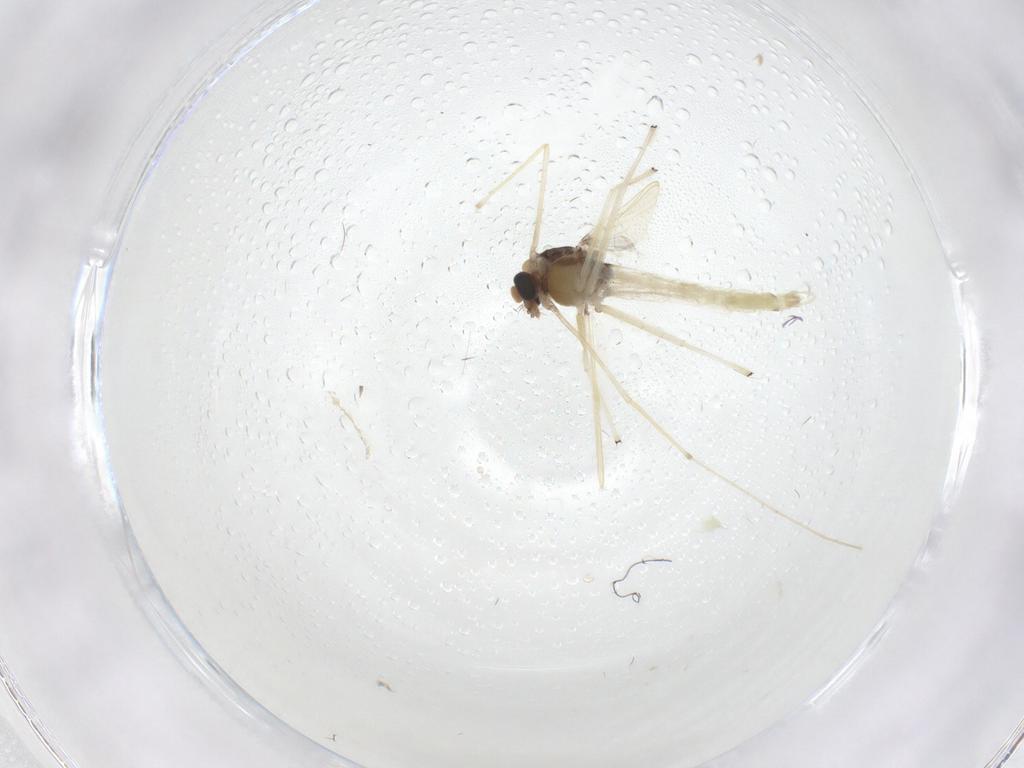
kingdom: Animalia
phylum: Arthropoda
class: Insecta
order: Diptera
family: Chironomidae
